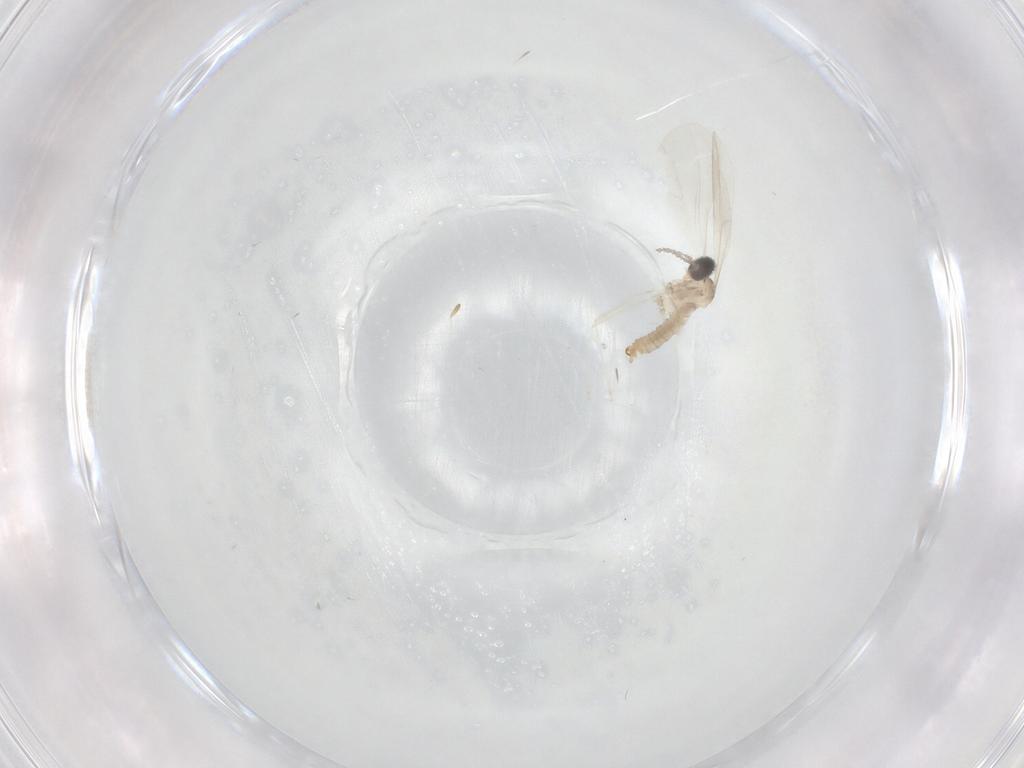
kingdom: Animalia
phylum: Arthropoda
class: Insecta
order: Diptera
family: Cecidomyiidae
